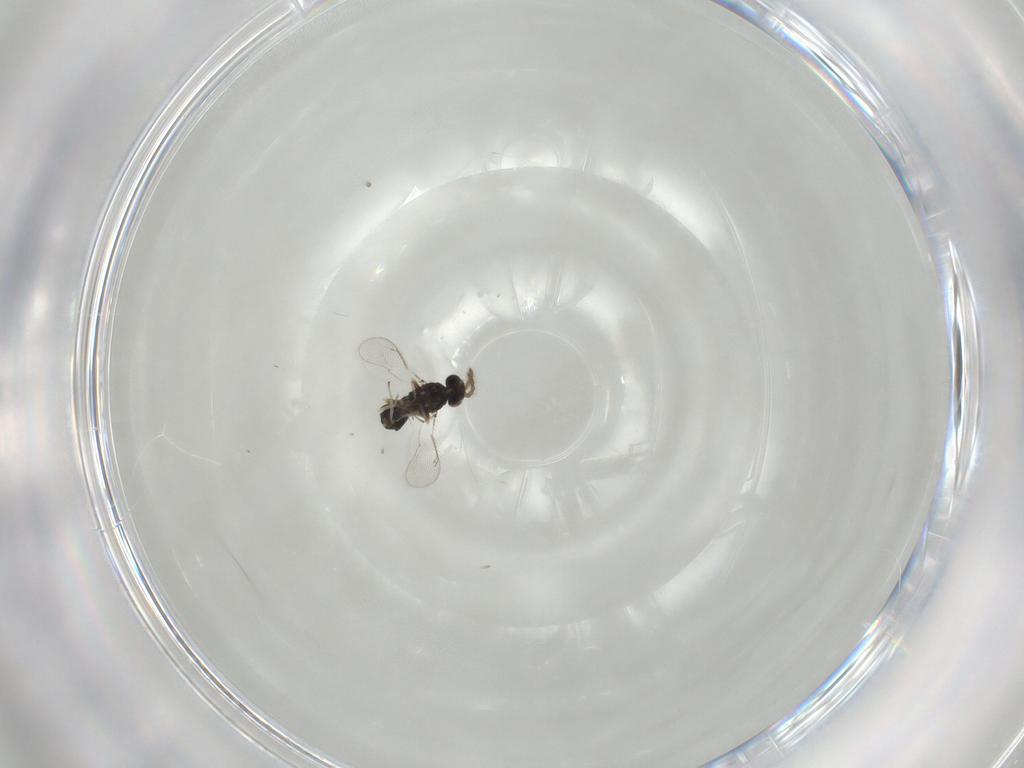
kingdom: Animalia
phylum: Arthropoda
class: Insecta
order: Hymenoptera
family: Eulophidae
